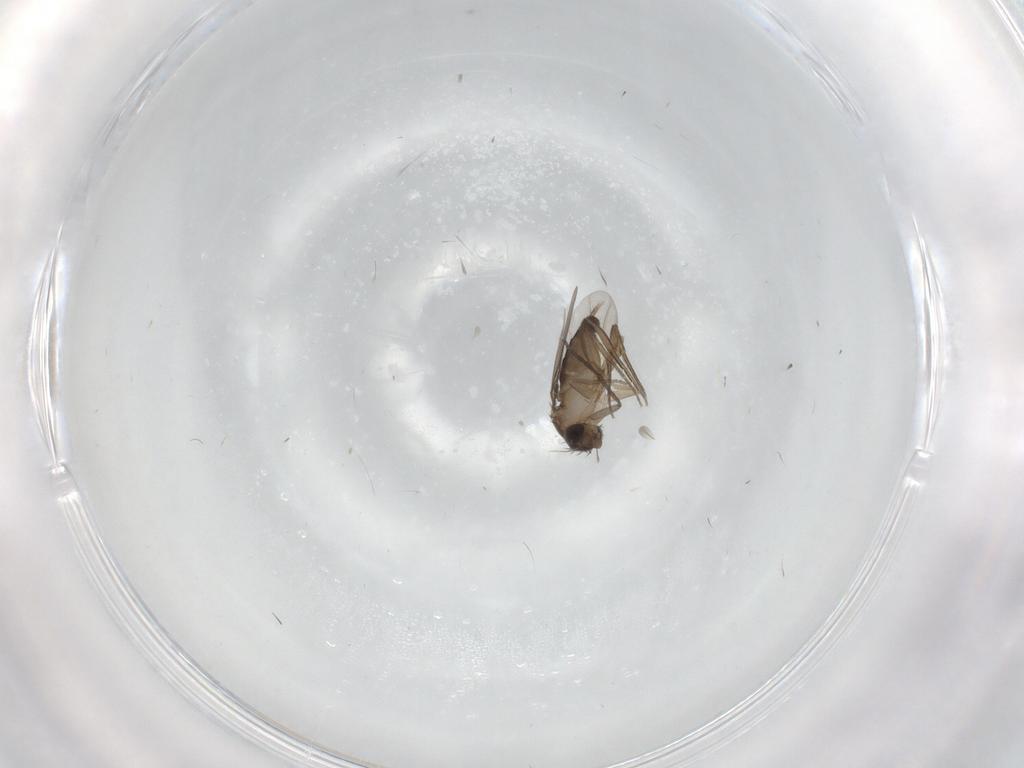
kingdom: Animalia
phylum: Arthropoda
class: Insecta
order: Diptera
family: Phoridae
